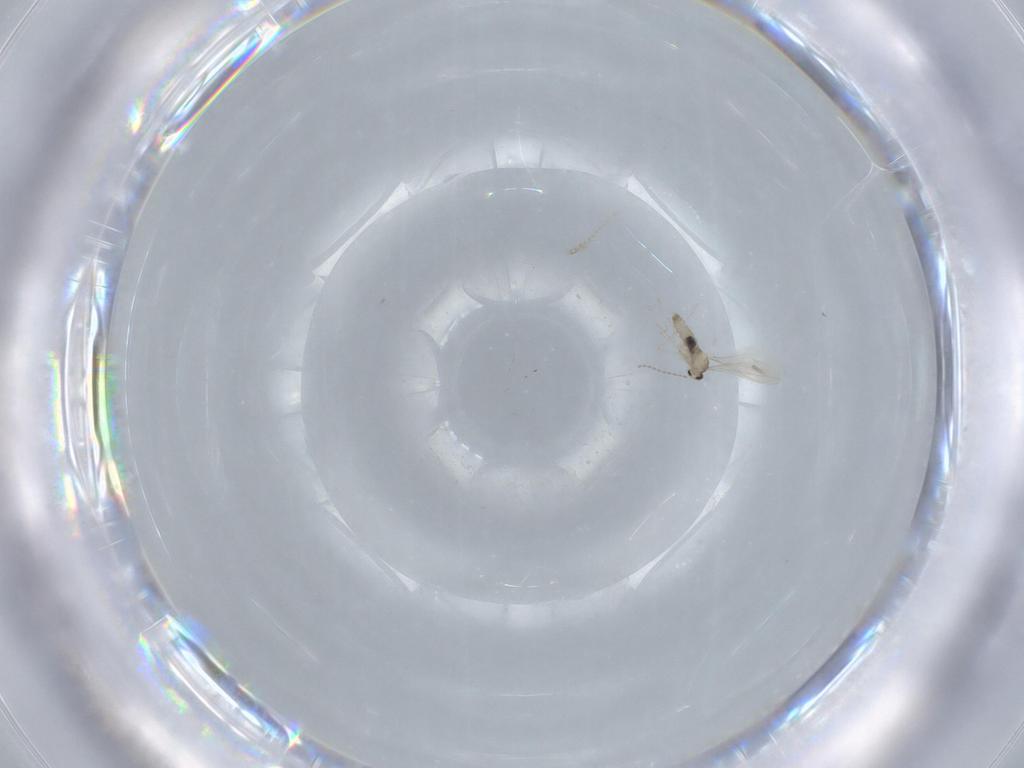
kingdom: Animalia
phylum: Arthropoda
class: Insecta
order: Diptera
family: Cecidomyiidae
